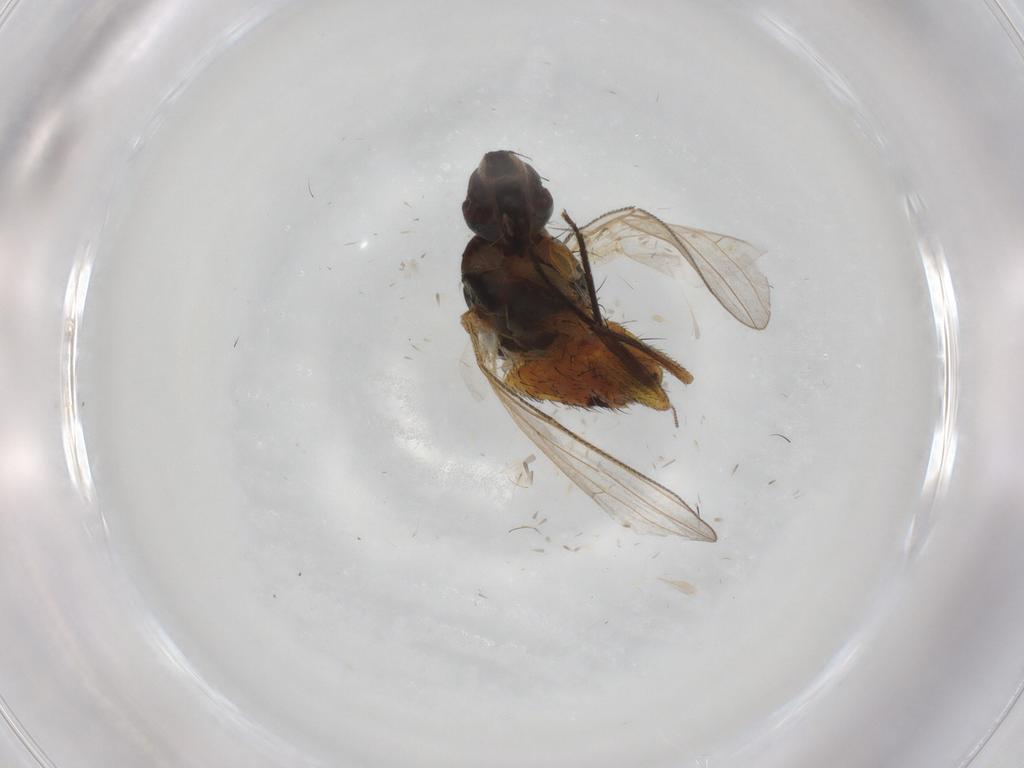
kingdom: Animalia
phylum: Arthropoda
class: Insecta
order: Diptera
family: Muscidae
